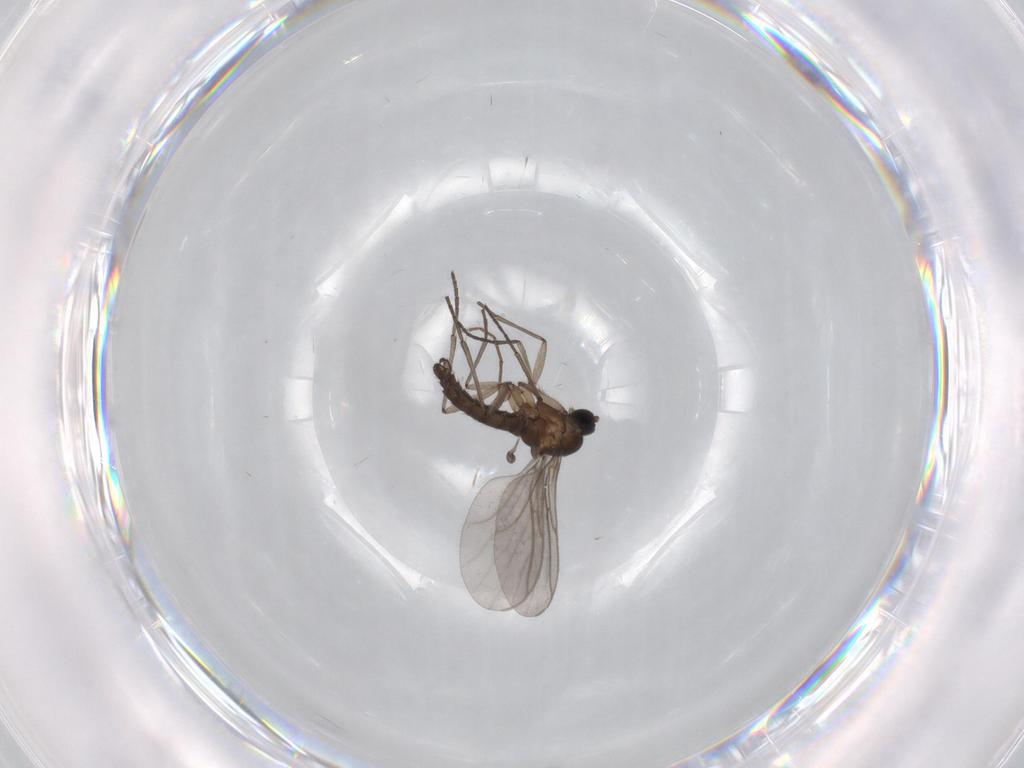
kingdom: Animalia
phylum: Arthropoda
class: Insecta
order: Diptera
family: Chironomidae
